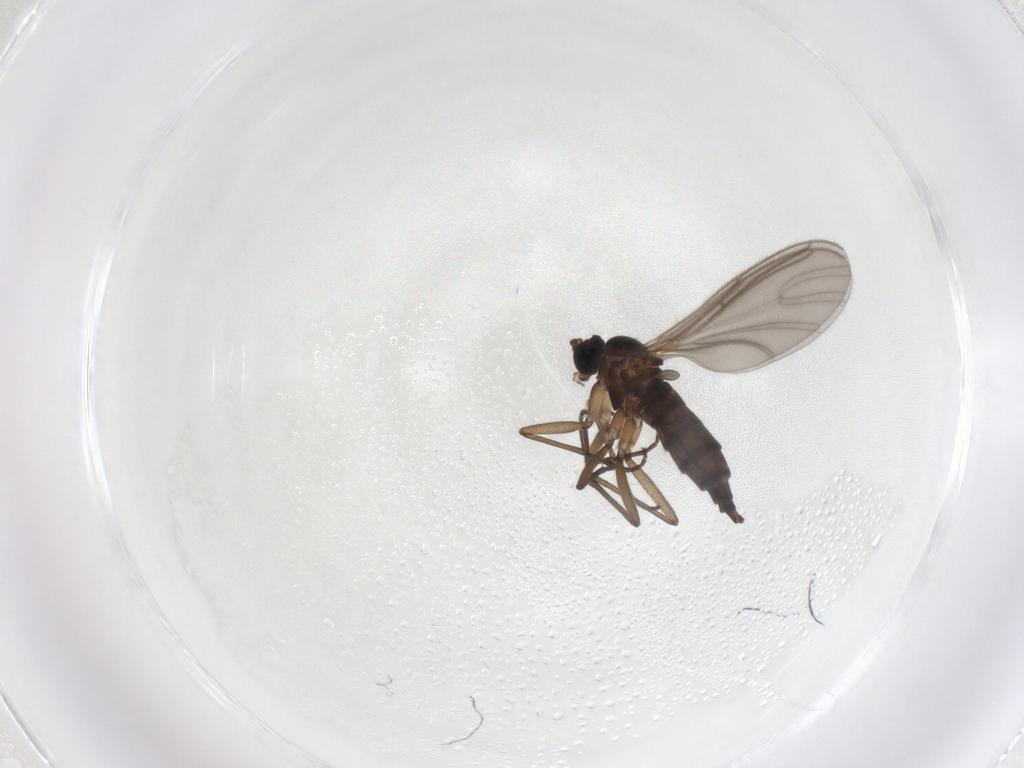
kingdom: Animalia
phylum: Arthropoda
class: Insecta
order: Diptera
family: Sciaridae
